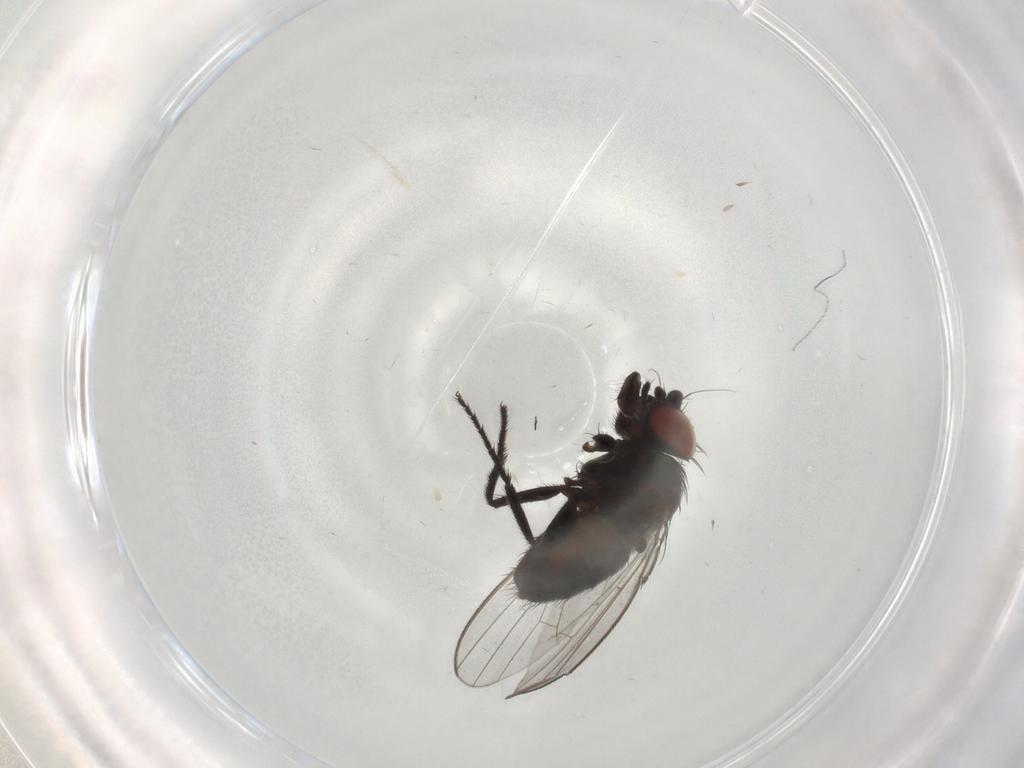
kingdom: Animalia
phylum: Arthropoda
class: Insecta
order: Diptera
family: Milichiidae
